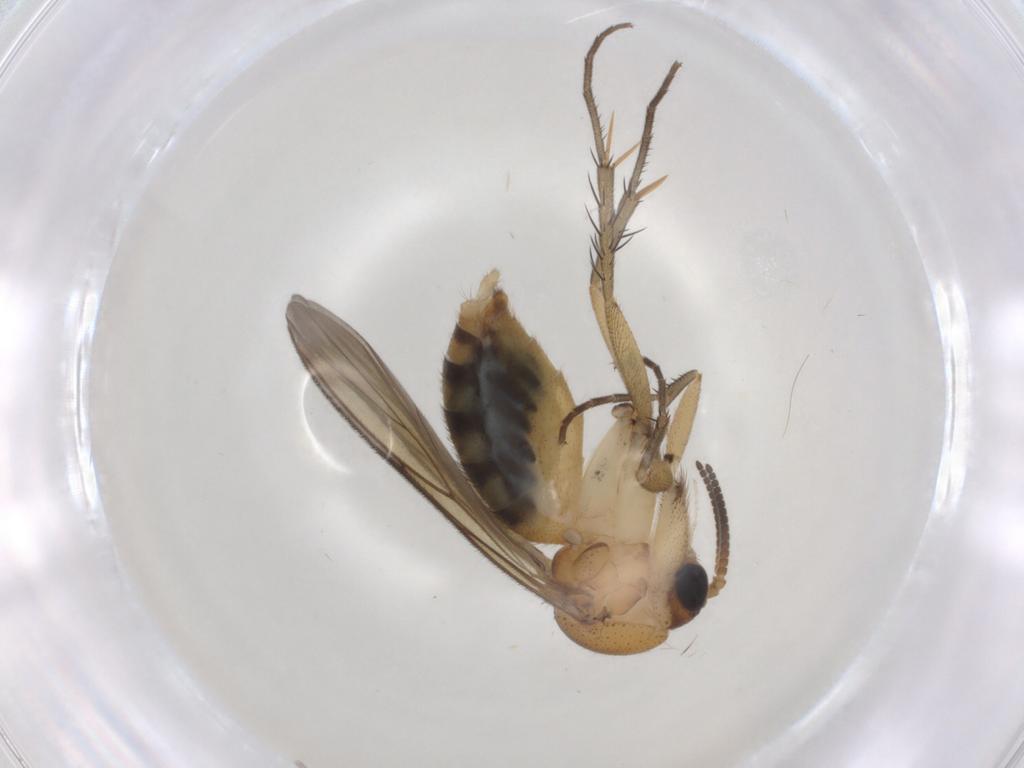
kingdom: Animalia
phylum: Arthropoda
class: Insecta
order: Diptera
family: Mycetophilidae
